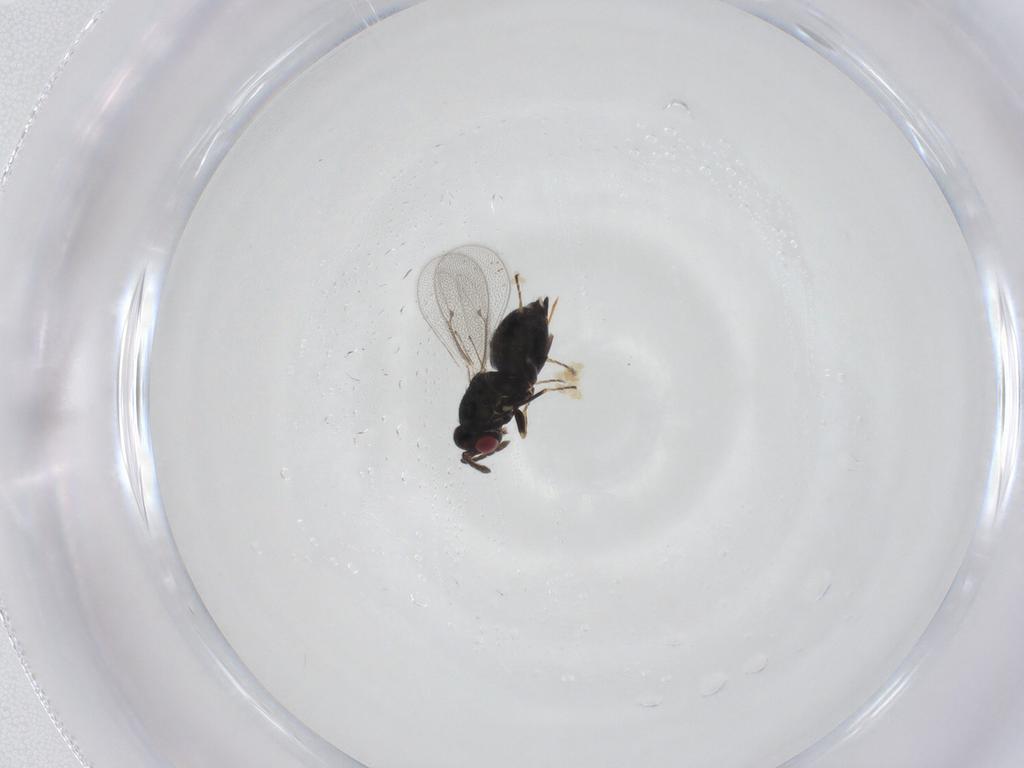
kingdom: Animalia
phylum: Arthropoda
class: Insecta
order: Hymenoptera
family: Eulophidae
